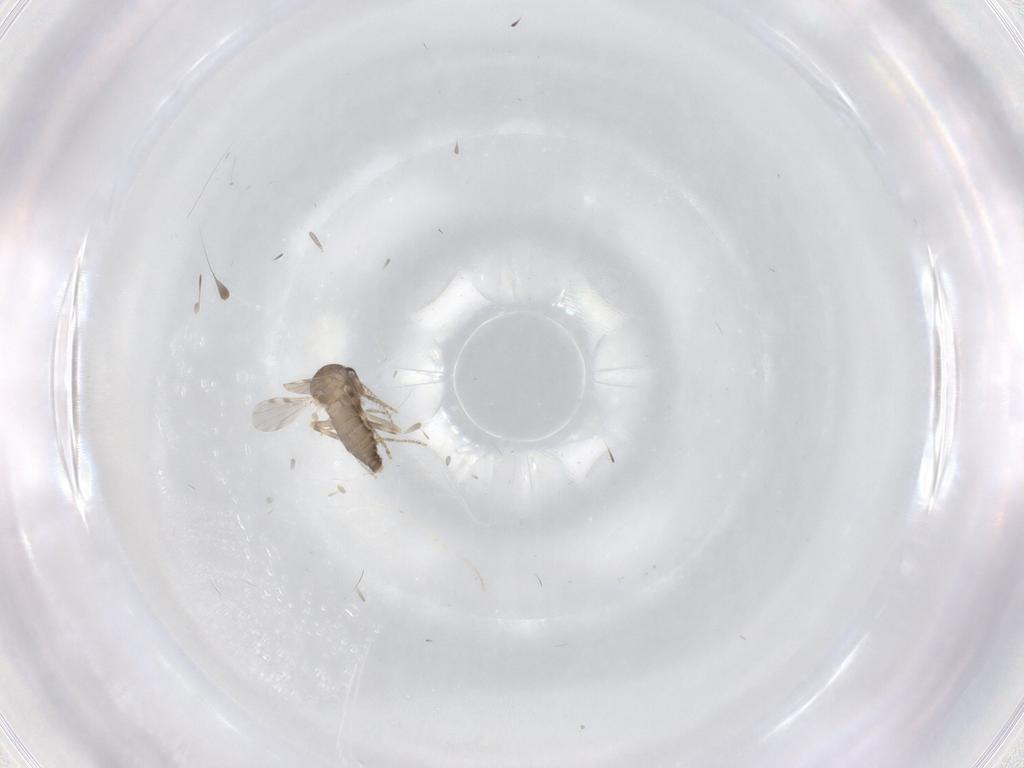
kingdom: Animalia
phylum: Arthropoda
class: Insecta
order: Diptera
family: Ceratopogonidae
